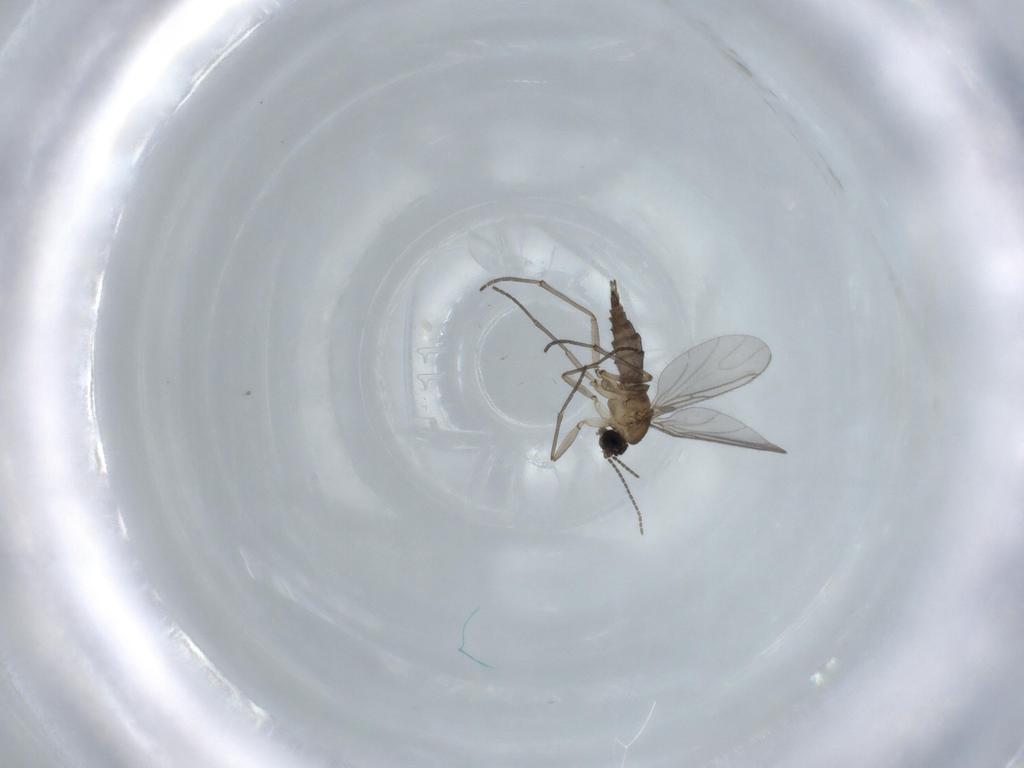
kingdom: Animalia
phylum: Arthropoda
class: Insecta
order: Diptera
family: Sciaridae
